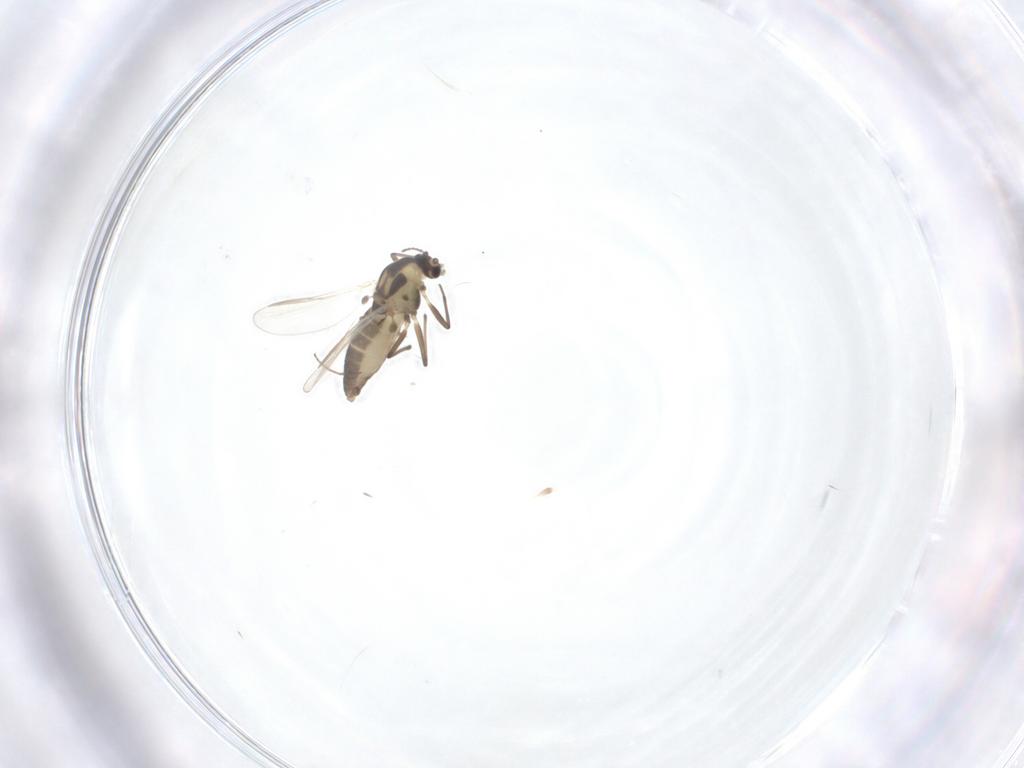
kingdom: Animalia
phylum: Arthropoda
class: Insecta
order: Diptera
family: Chironomidae
